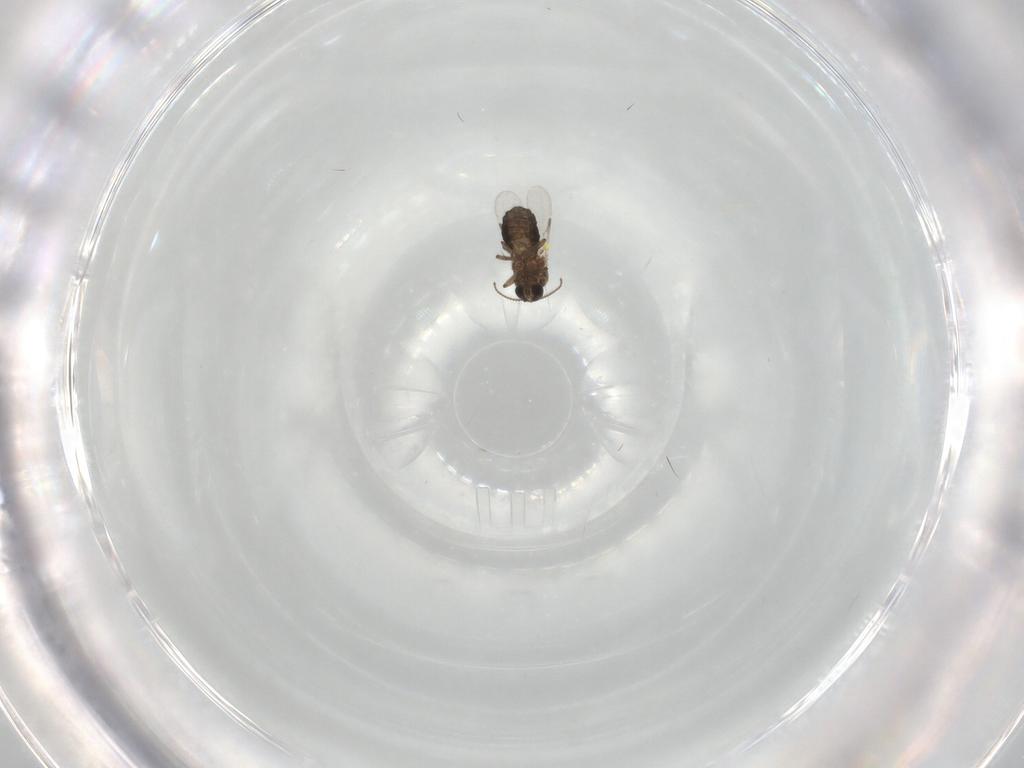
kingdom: Animalia
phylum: Arthropoda
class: Insecta
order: Diptera
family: Ceratopogonidae
